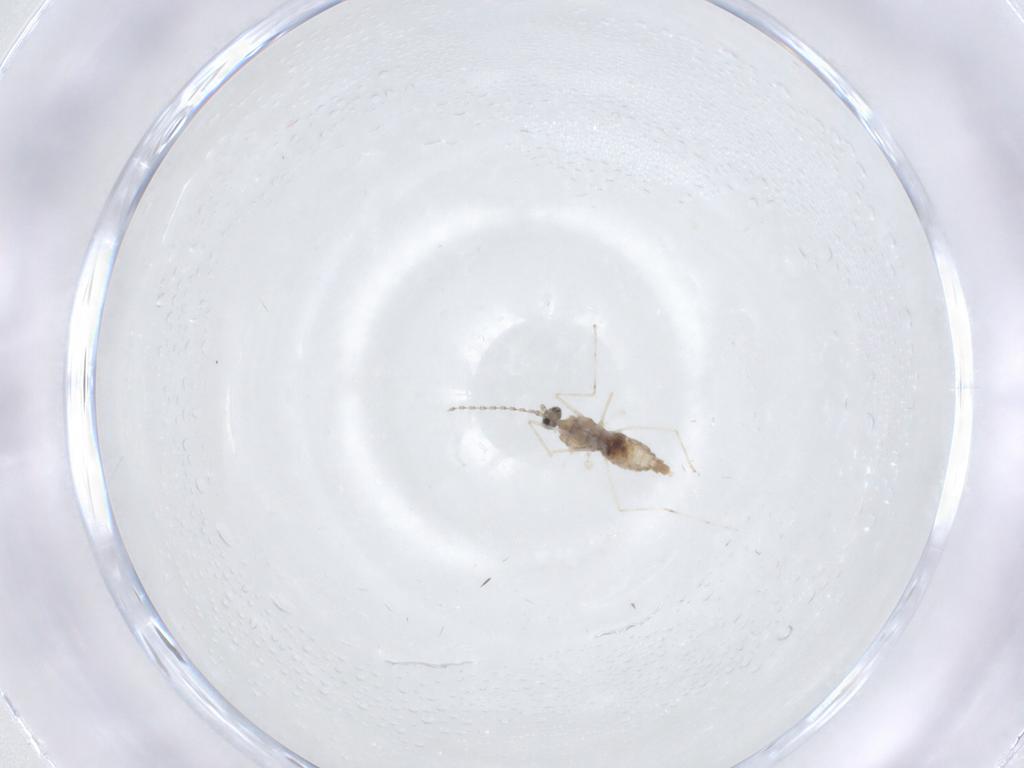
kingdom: Animalia
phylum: Arthropoda
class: Insecta
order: Diptera
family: Cecidomyiidae
